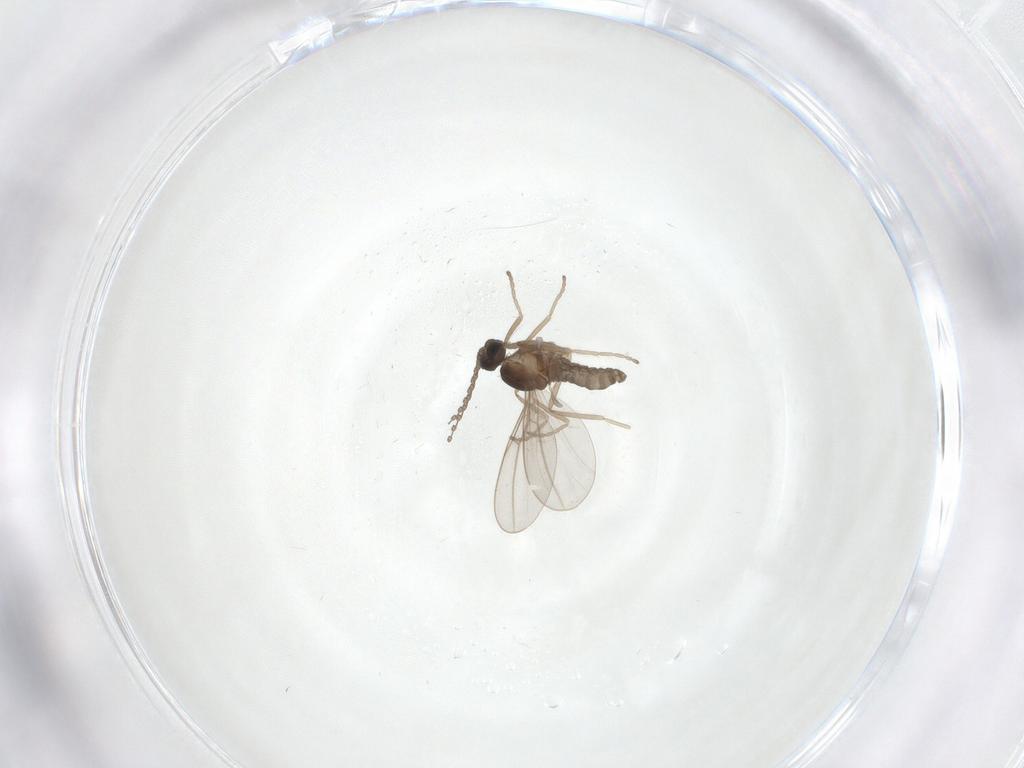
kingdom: Animalia
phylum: Arthropoda
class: Insecta
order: Diptera
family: Cecidomyiidae
